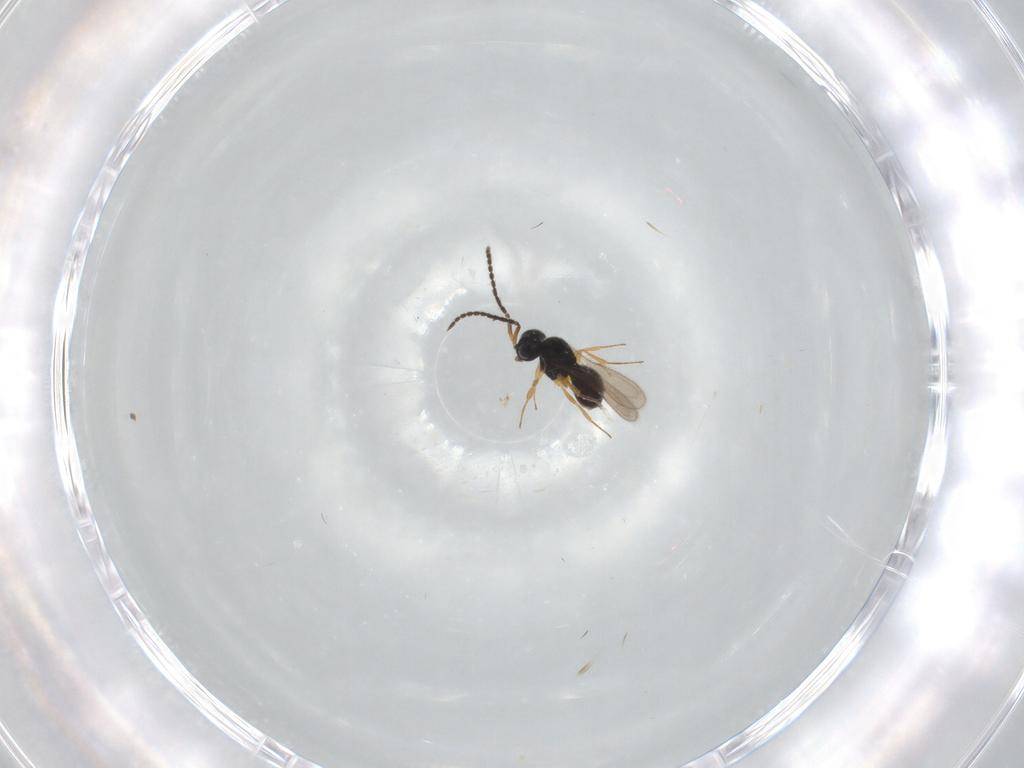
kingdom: Animalia
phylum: Arthropoda
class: Insecta
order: Hymenoptera
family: Scelionidae
